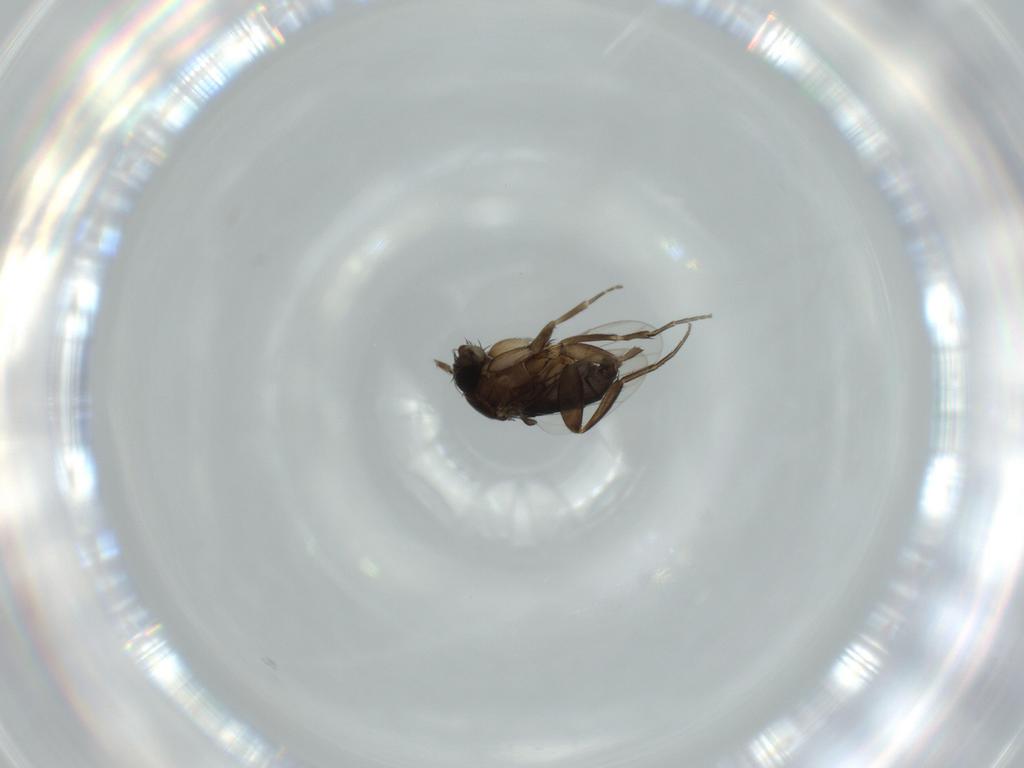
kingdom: Animalia
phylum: Arthropoda
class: Insecta
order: Diptera
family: Phoridae
